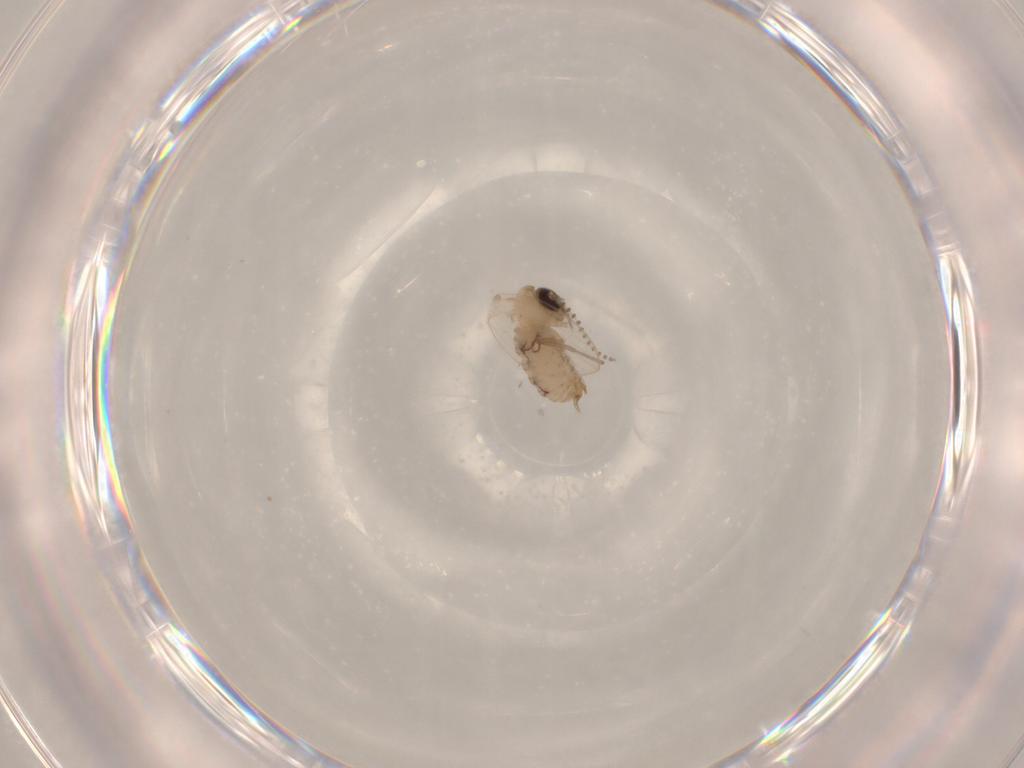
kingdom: Animalia
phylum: Arthropoda
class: Insecta
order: Diptera
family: Psychodidae
